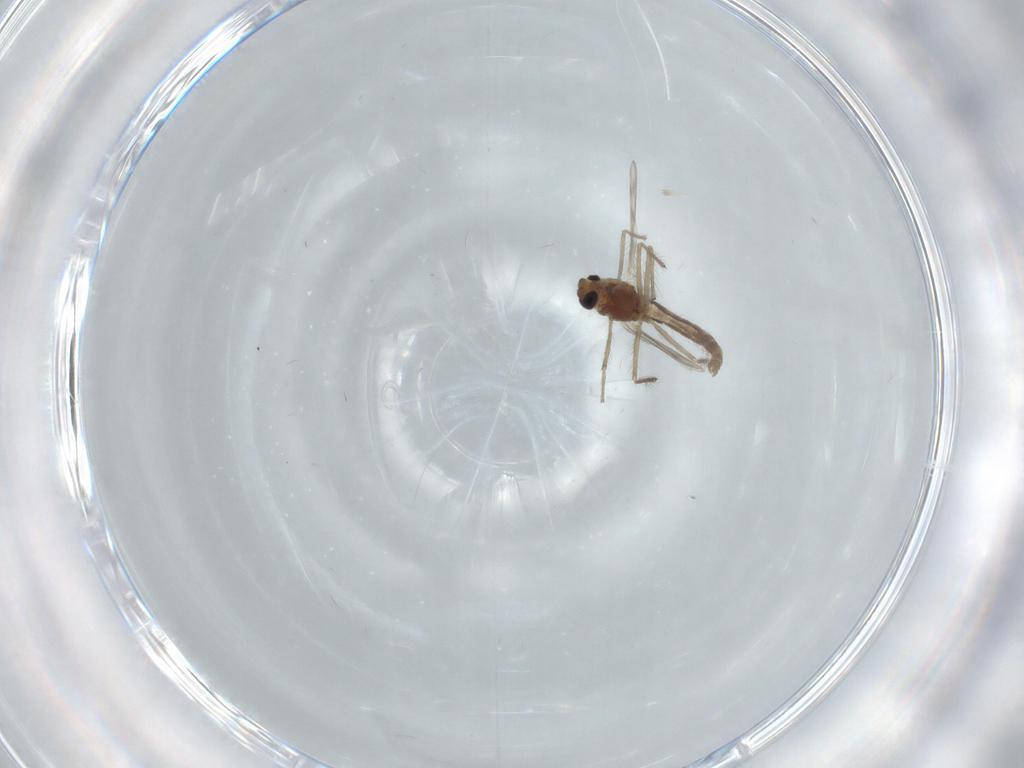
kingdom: Animalia
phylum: Arthropoda
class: Insecta
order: Diptera
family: Chironomidae
